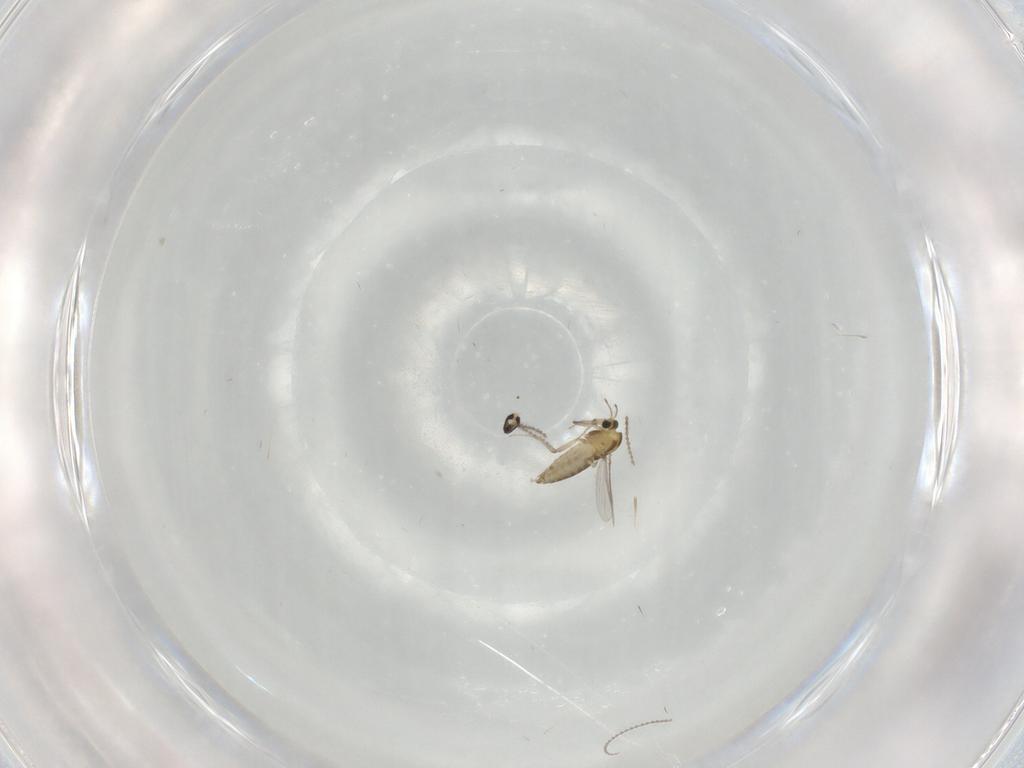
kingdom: Animalia
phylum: Arthropoda
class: Insecta
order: Diptera
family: Chironomidae
